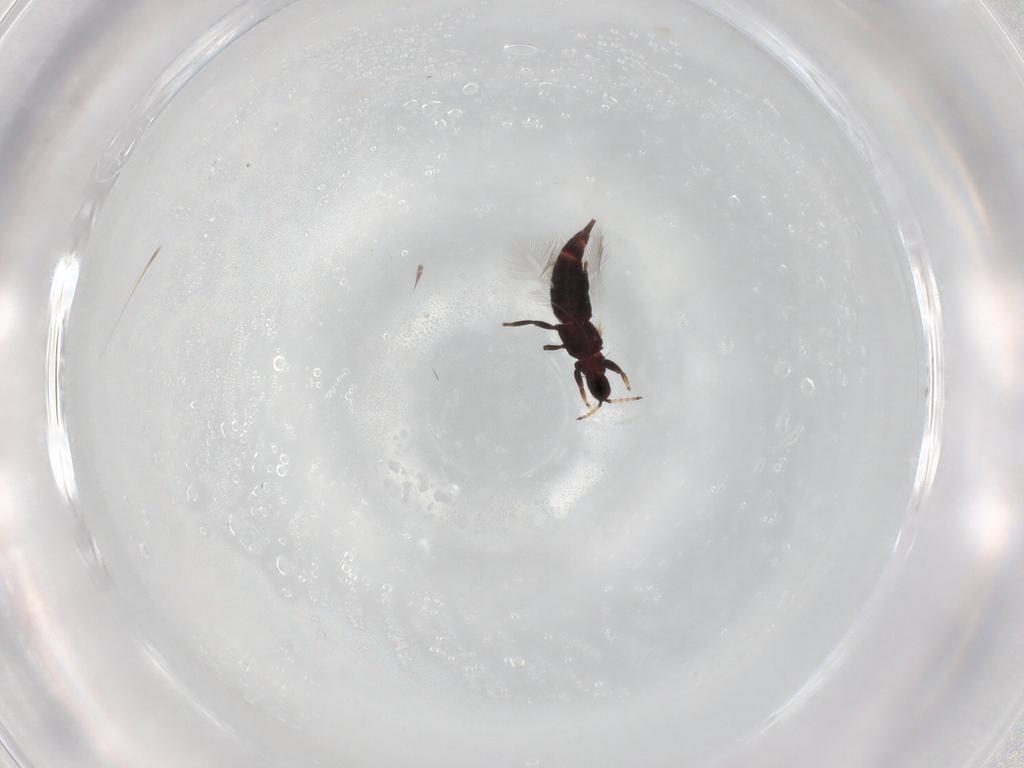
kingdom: Animalia
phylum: Arthropoda
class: Insecta
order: Thysanoptera
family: Phlaeothripidae
